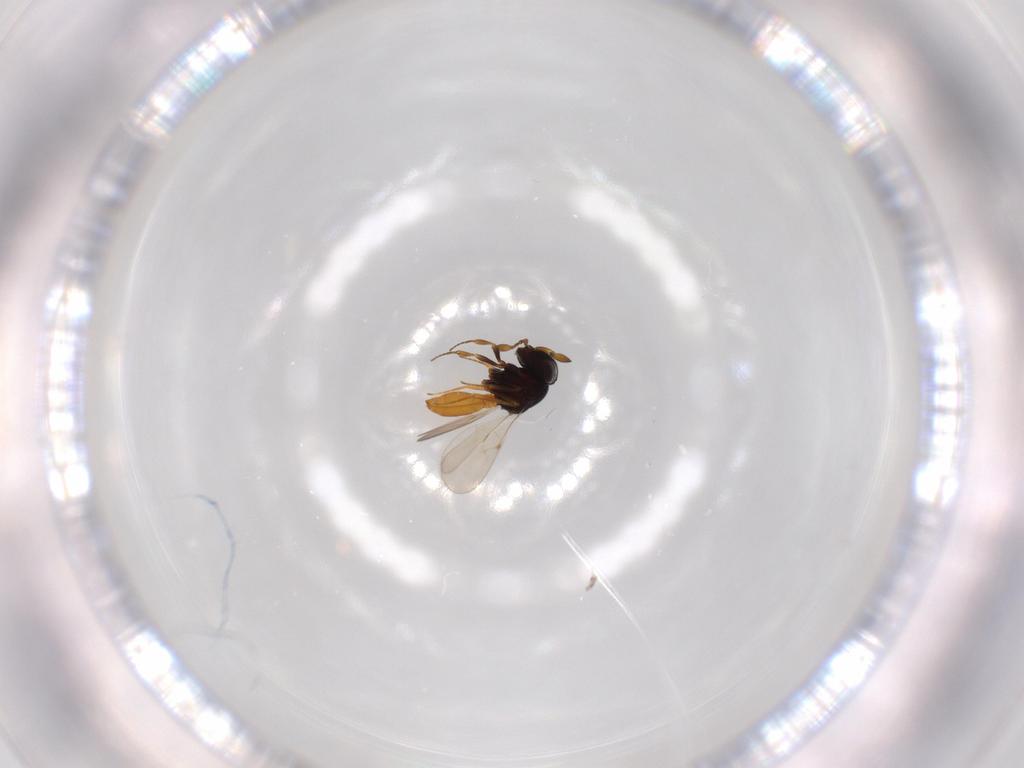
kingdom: Animalia
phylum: Arthropoda
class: Insecta
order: Hymenoptera
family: Scelionidae
